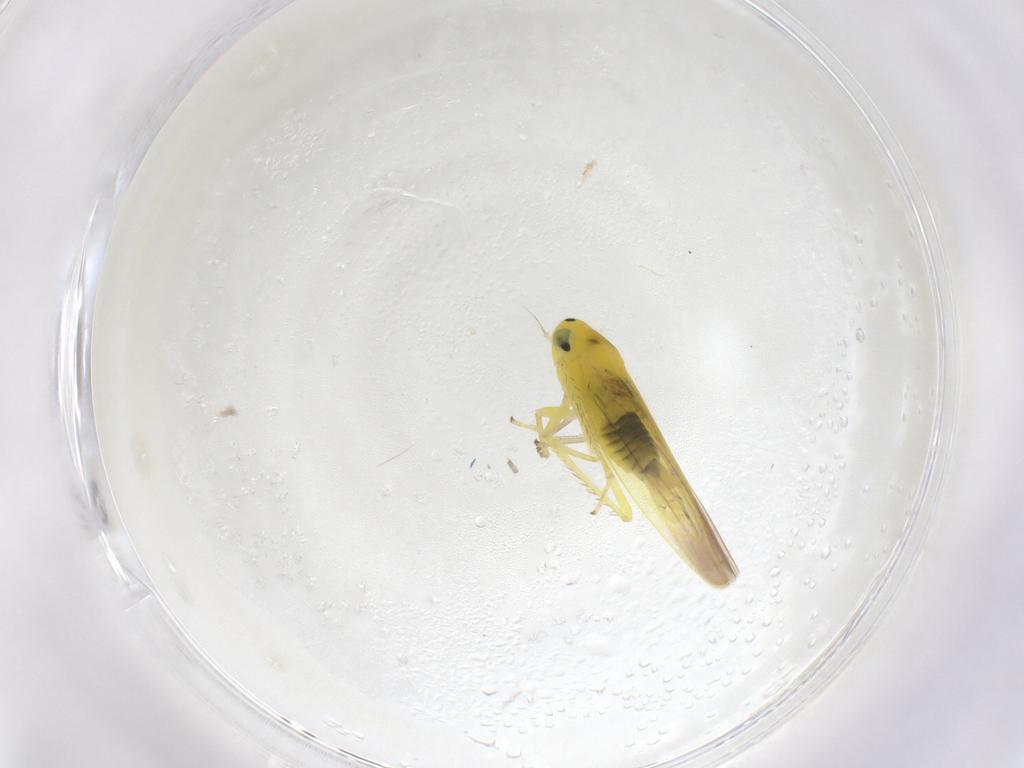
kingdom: Animalia
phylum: Arthropoda
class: Insecta
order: Hemiptera
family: Cicadellidae
